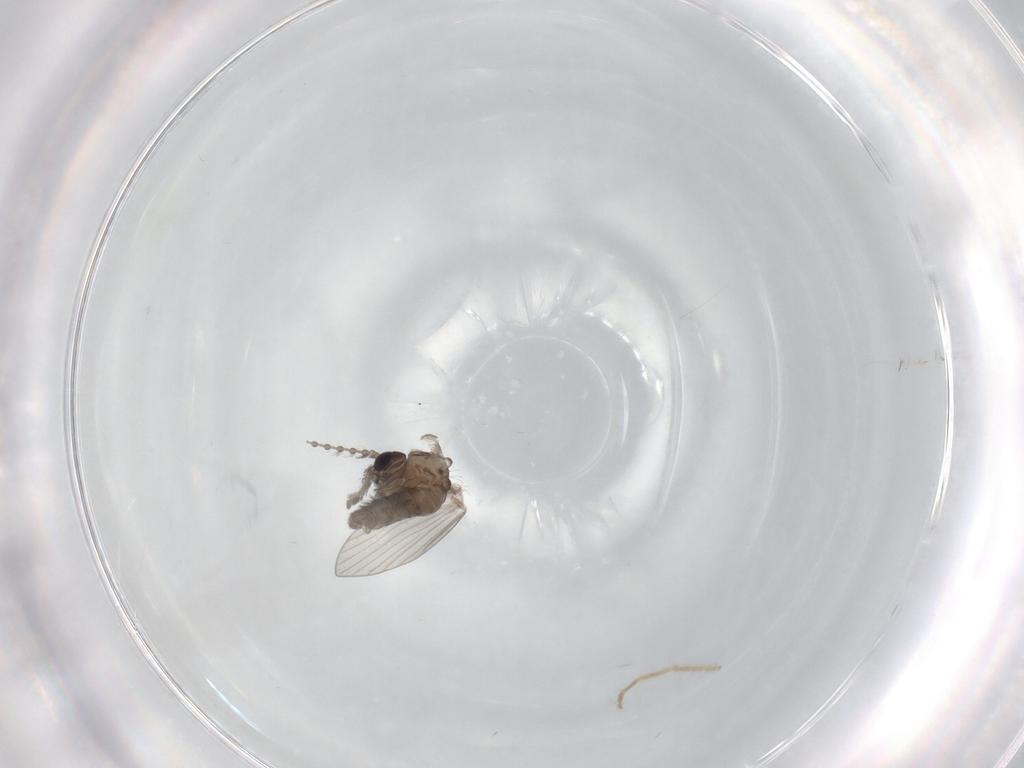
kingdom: Animalia
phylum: Arthropoda
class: Insecta
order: Diptera
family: Psychodidae
